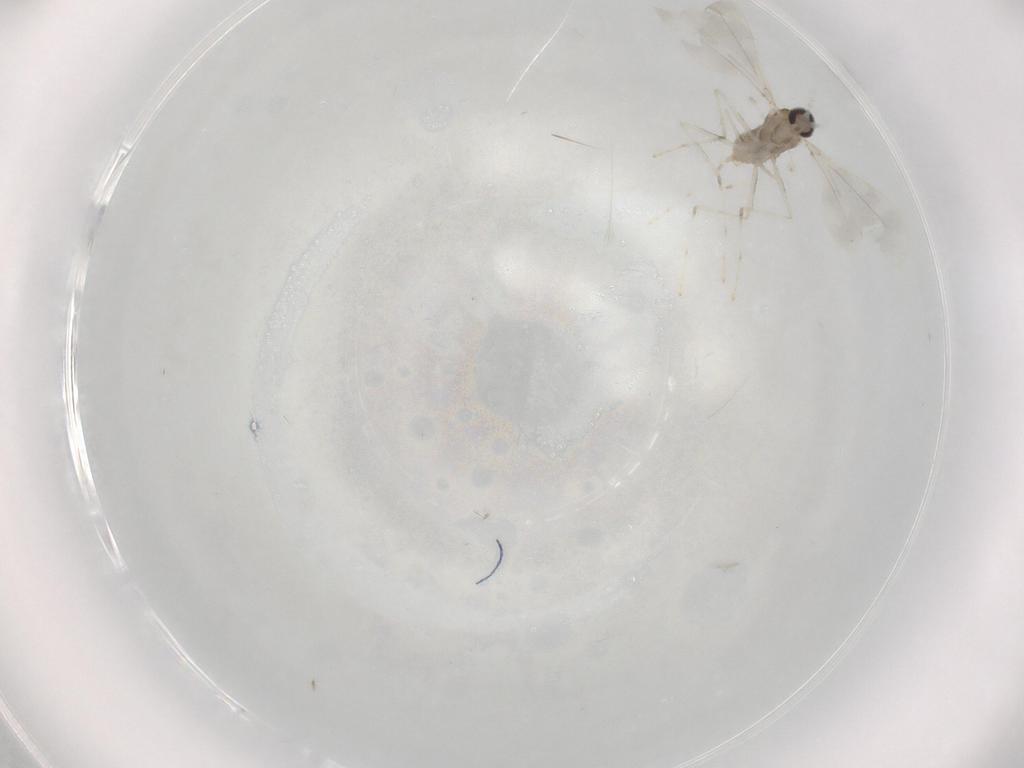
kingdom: Animalia
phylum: Arthropoda
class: Insecta
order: Diptera
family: Cecidomyiidae
